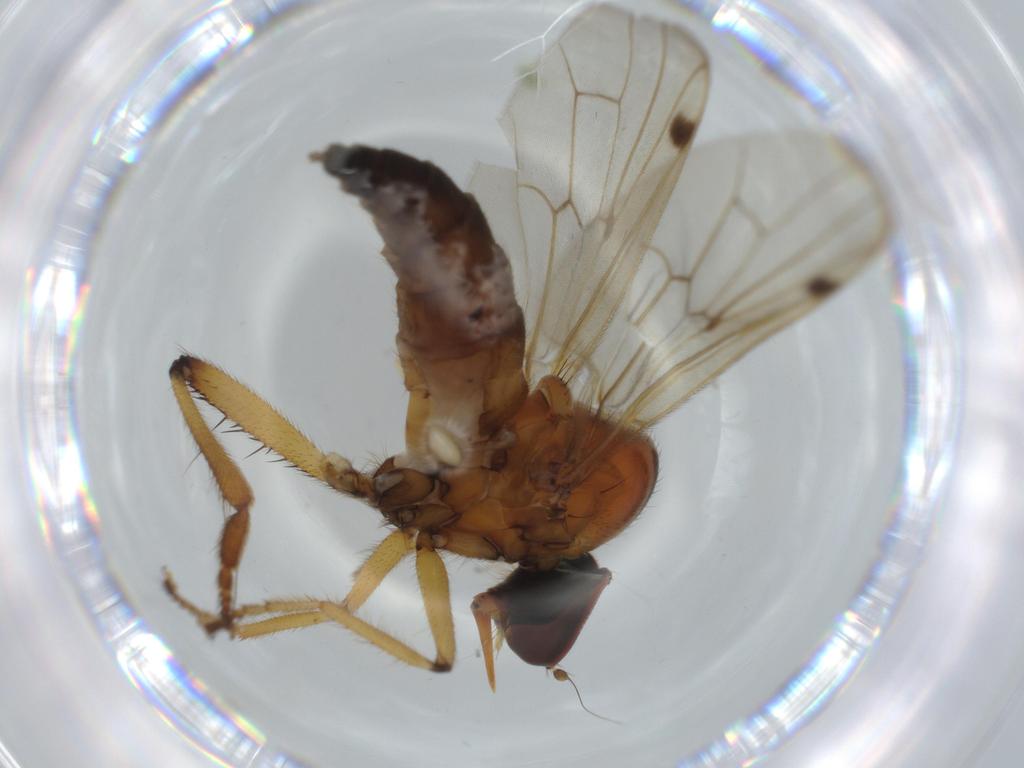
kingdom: Animalia
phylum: Arthropoda
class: Insecta
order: Diptera
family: Hybotidae
